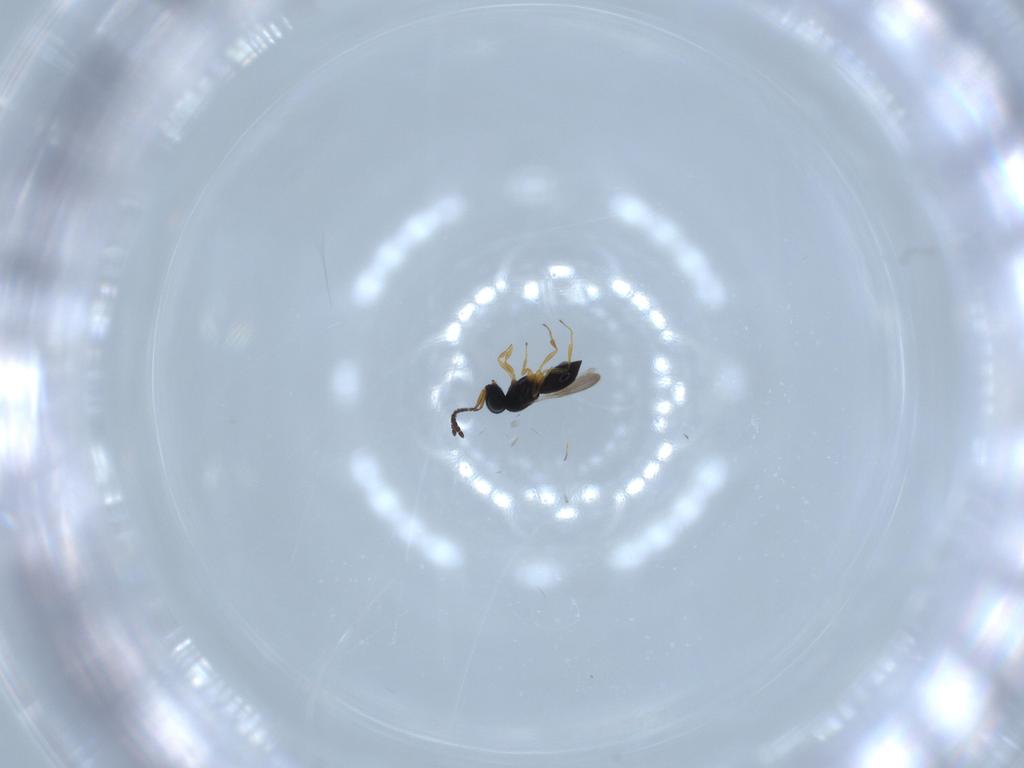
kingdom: Animalia
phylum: Arthropoda
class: Insecta
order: Hymenoptera
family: Scelionidae
